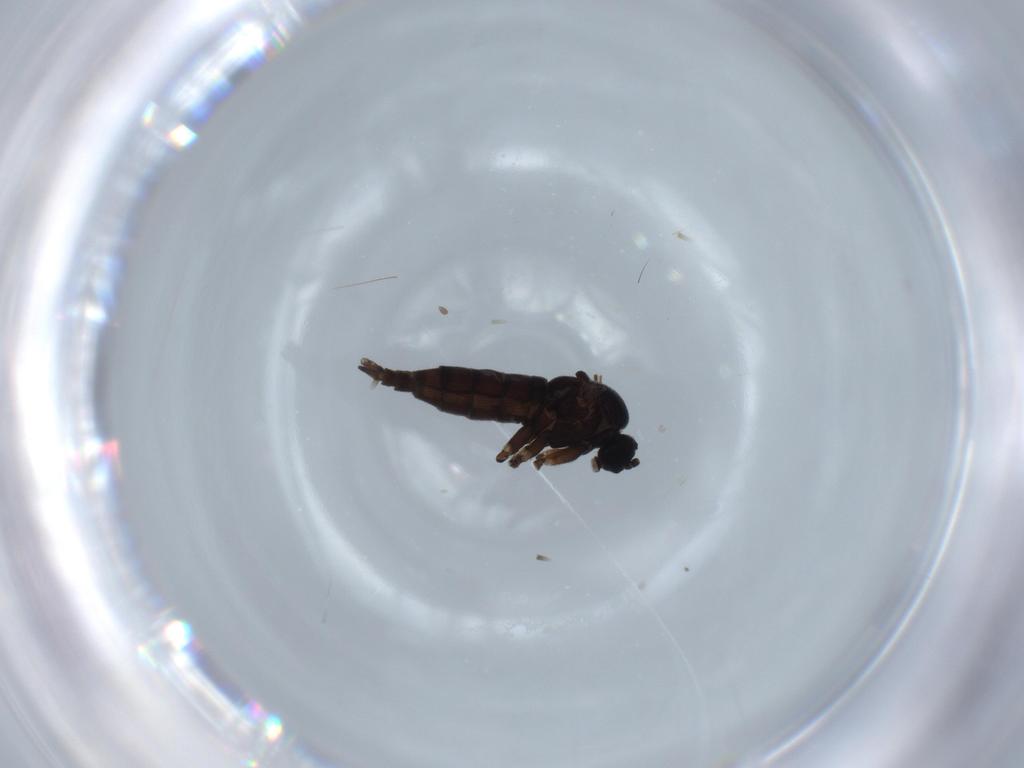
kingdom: Animalia
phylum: Arthropoda
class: Insecta
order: Diptera
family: Sciaridae
